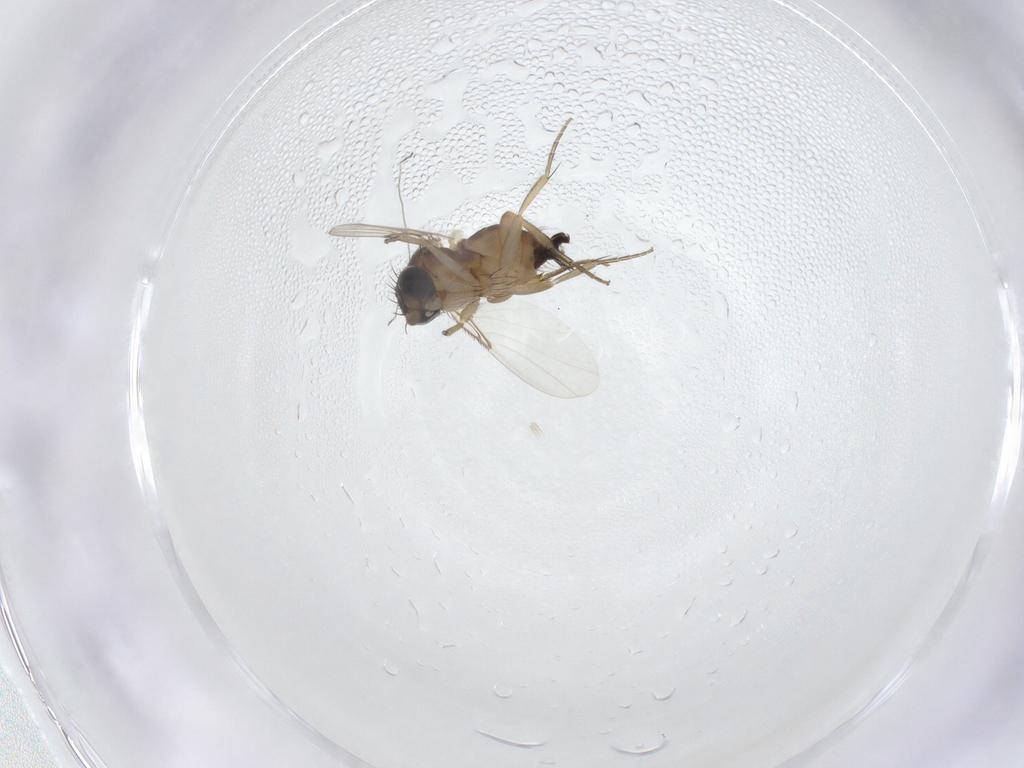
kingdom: Animalia
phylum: Arthropoda
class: Insecta
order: Diptera
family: Phoridae
